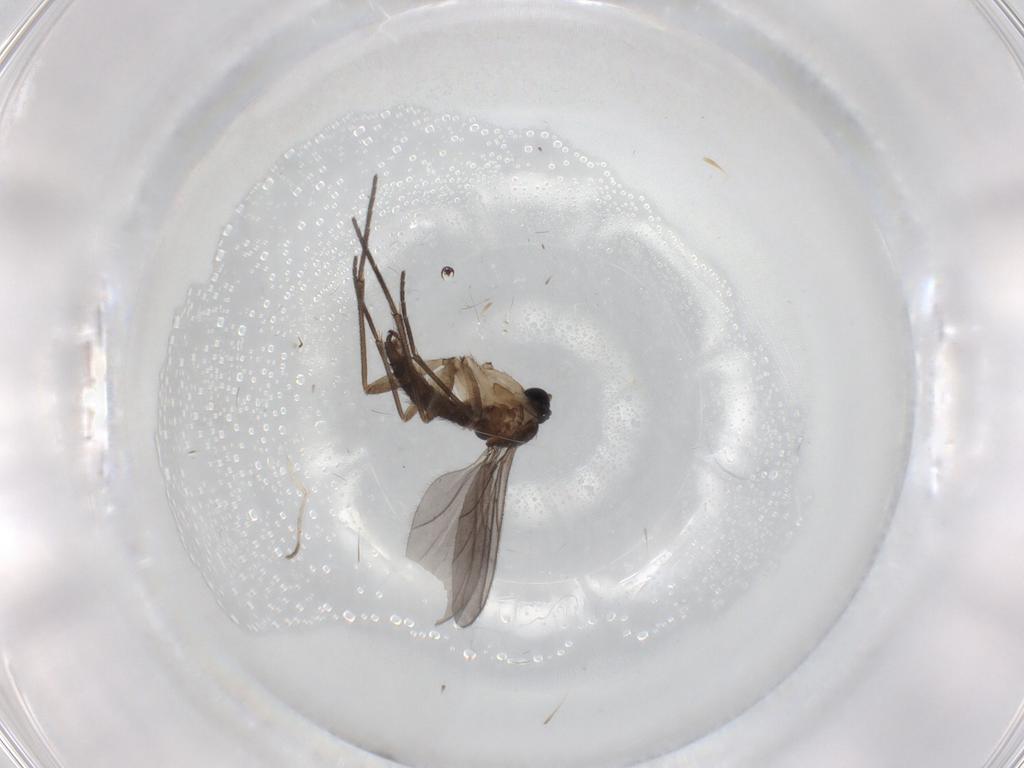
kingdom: Animalia
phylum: Arthropoda
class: Insecta
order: Diptera
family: Sciaridae
